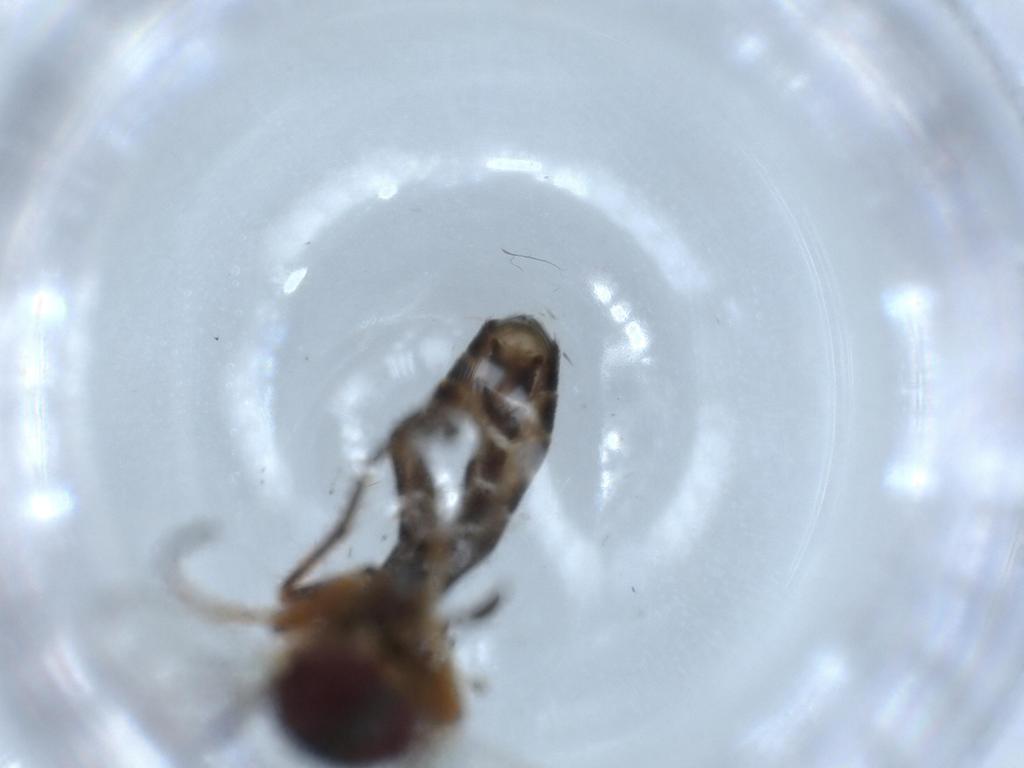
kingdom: Animalia
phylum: Arthropoda
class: Insecta
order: Diptera
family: Bombyliidae
